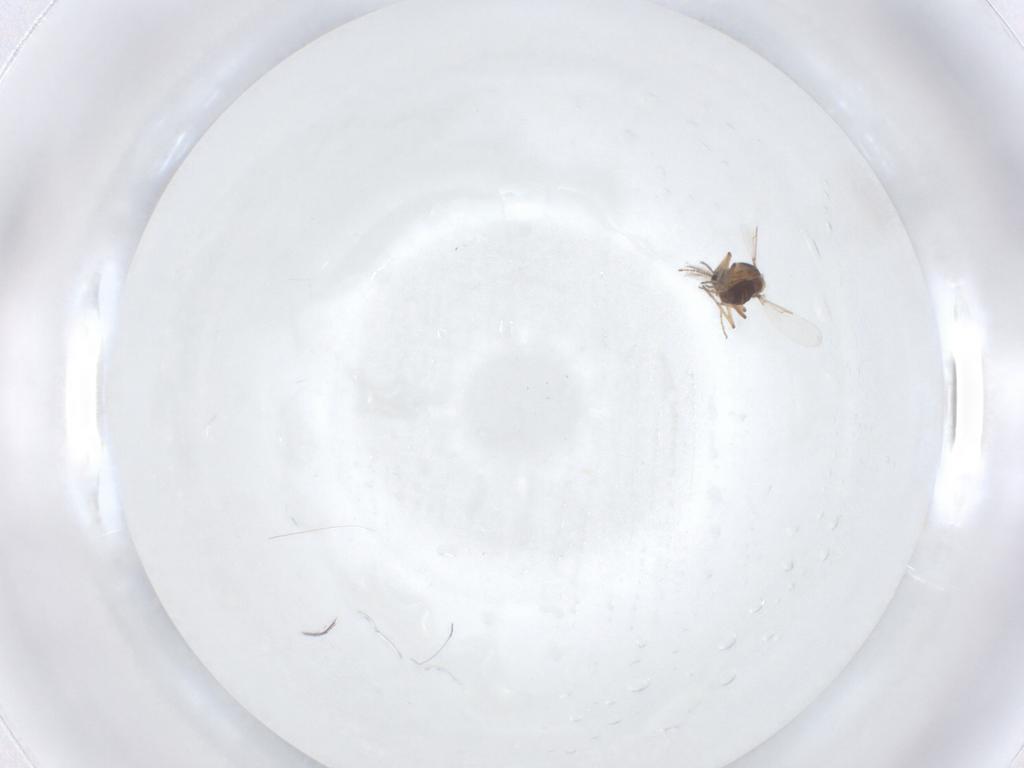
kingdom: Animalia
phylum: Arthropoda
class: Insecta
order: Diptera
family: Ceratopogonidae
